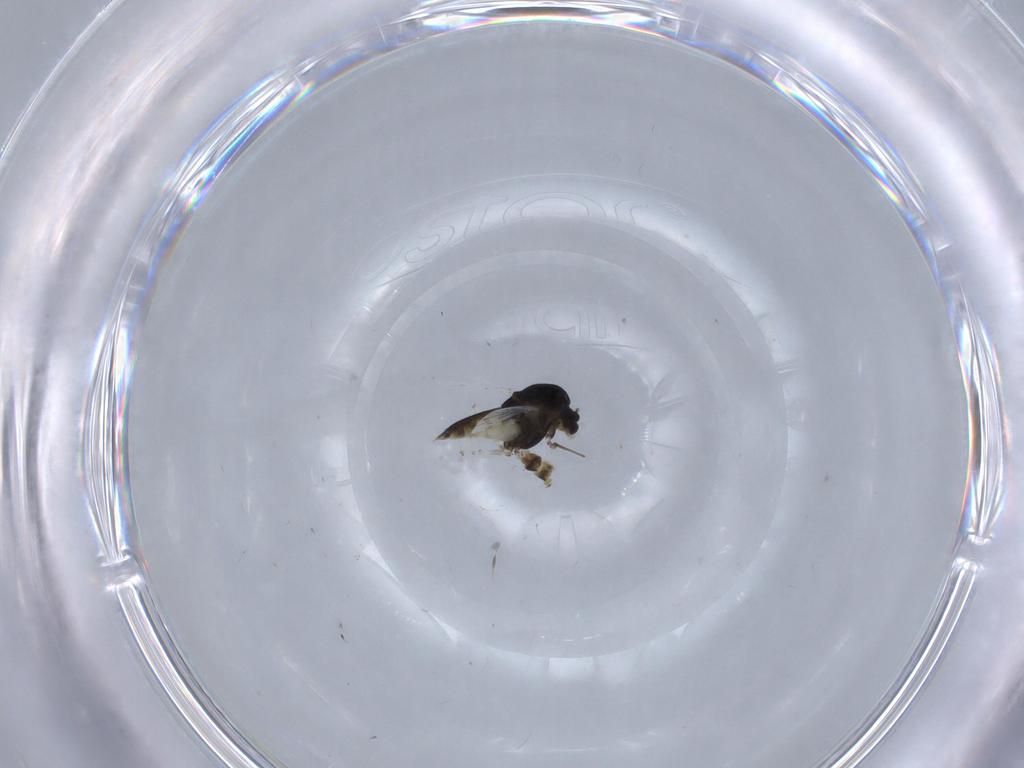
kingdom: Animalia
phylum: Arthropoda
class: Insecta
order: Diptera
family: Chironomidae
